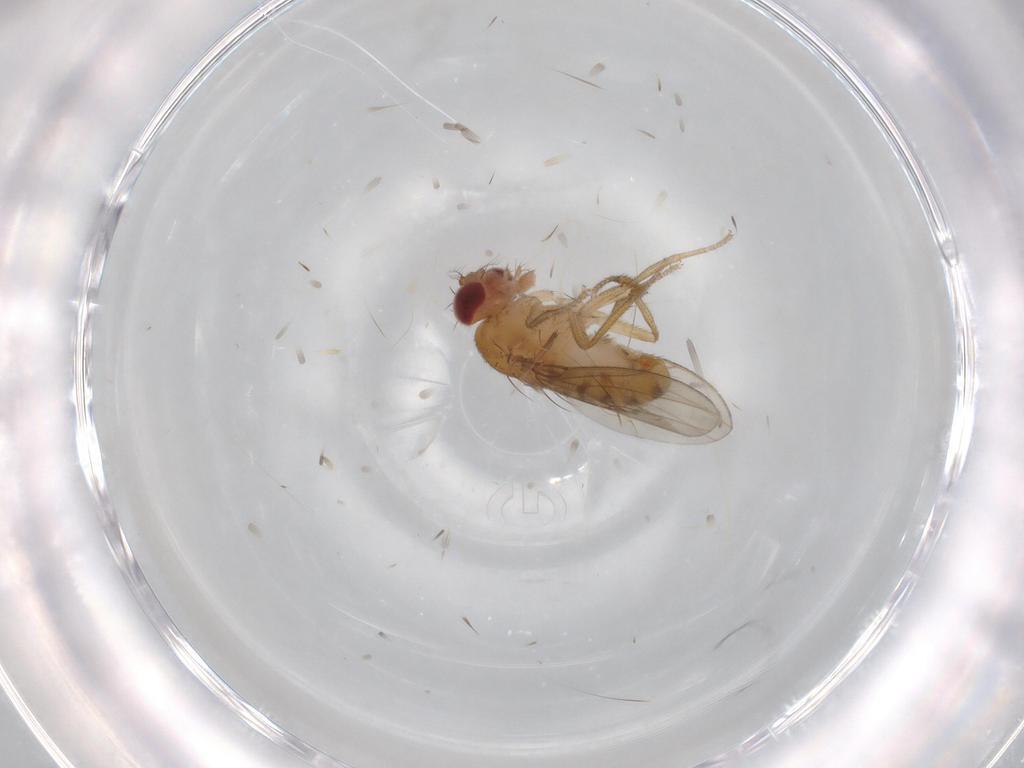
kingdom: Animalia
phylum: Arthropoda
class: Insecta
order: Diptera
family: Drosophilidae
